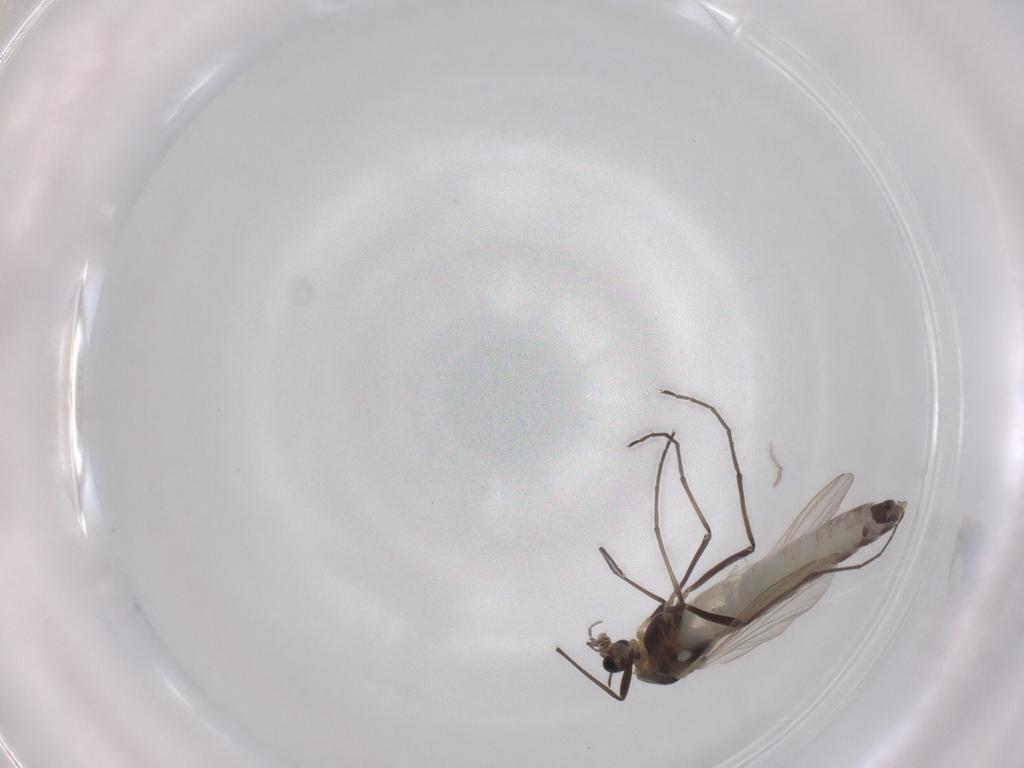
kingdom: Animalia
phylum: Arthropoda
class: Insecta
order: Diptera
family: Chironomidae
